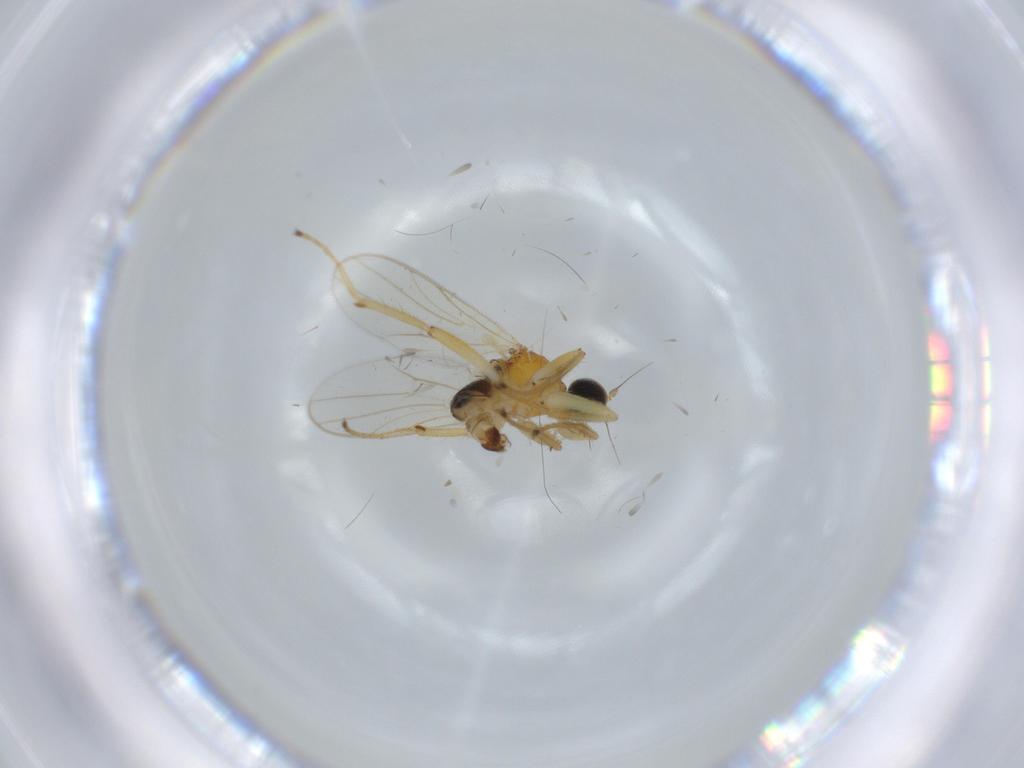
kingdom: Animalia
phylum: Arthropoda
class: Insecta
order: Diptera
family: Hybotidae
